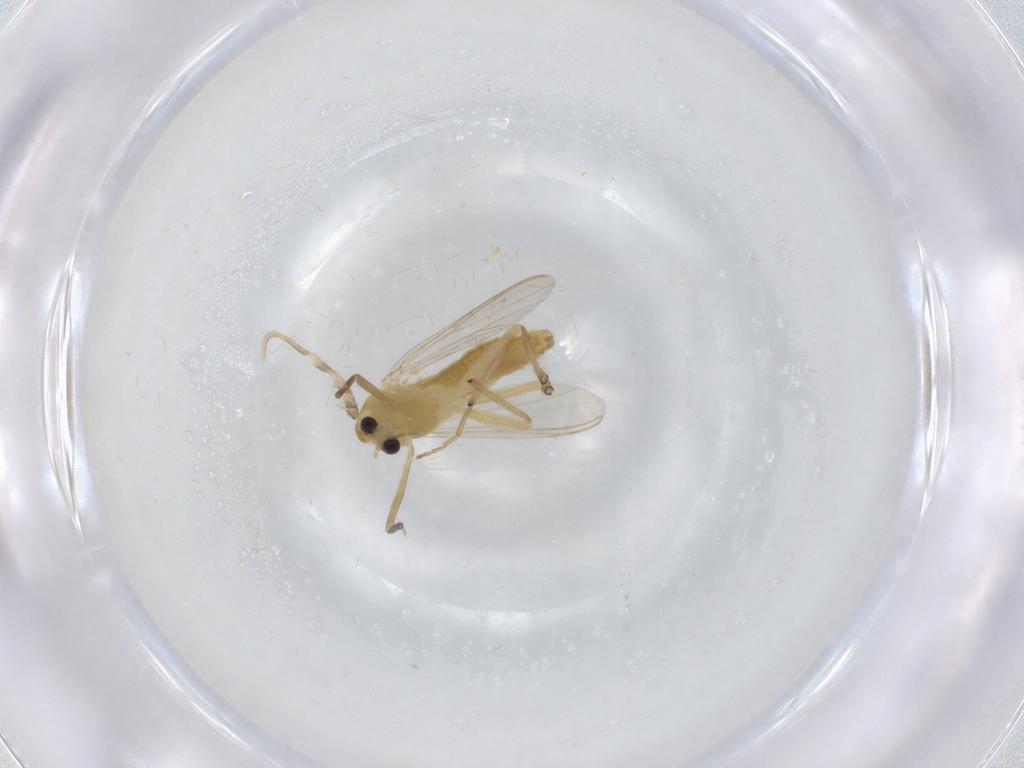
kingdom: Animalia
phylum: Arthropoda
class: Insecta
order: Diptera
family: Chironomidae
